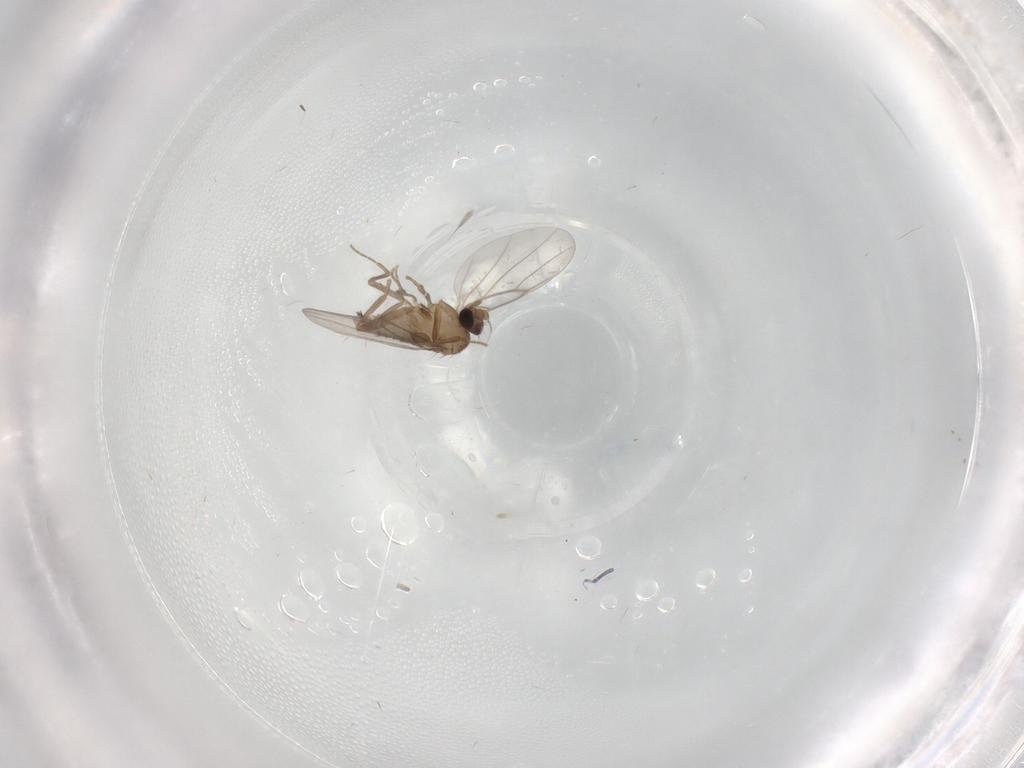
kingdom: Animalia
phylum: Arthropoda
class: Insecta
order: Diptera
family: Psychodidae
